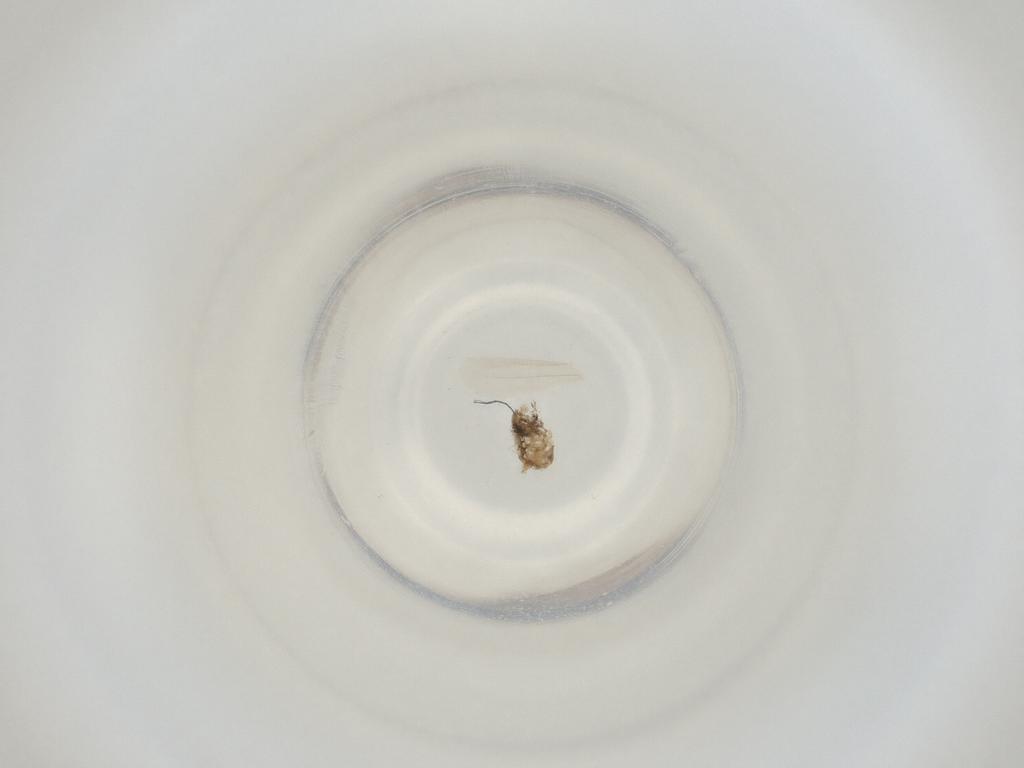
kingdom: Animalia
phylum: Arthropoda
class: Insecta
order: Diptera
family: Cecidomyiidae
